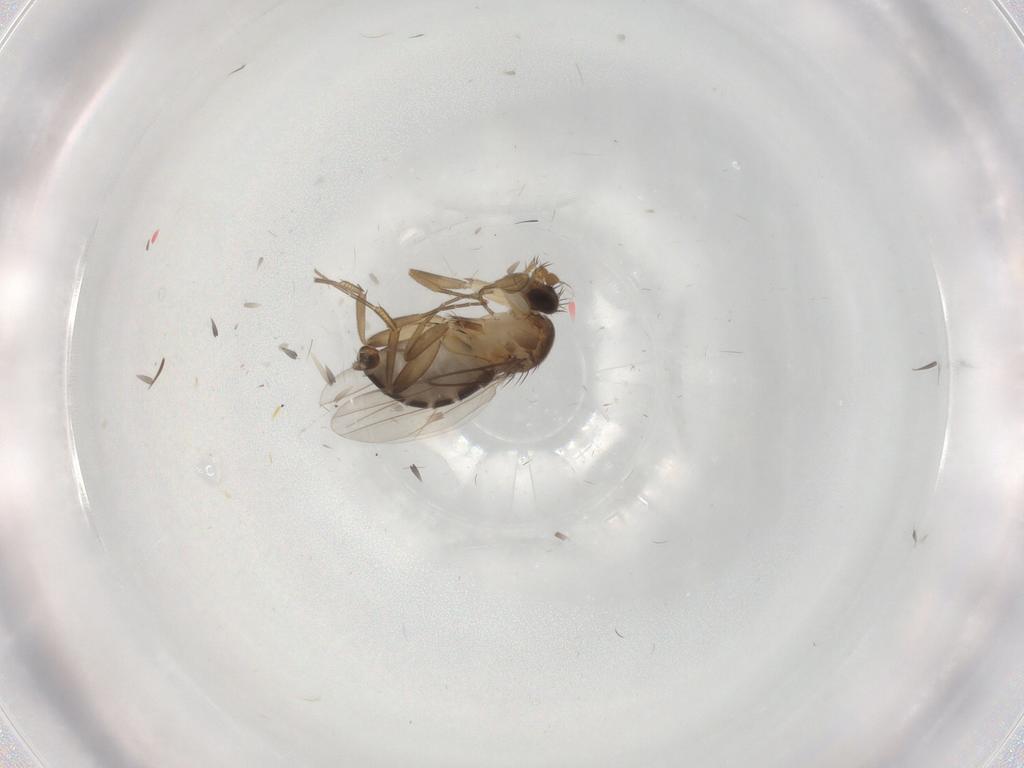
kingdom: Animalia
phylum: Arthropoda
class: Insecta
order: Diptera
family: Phoridae
